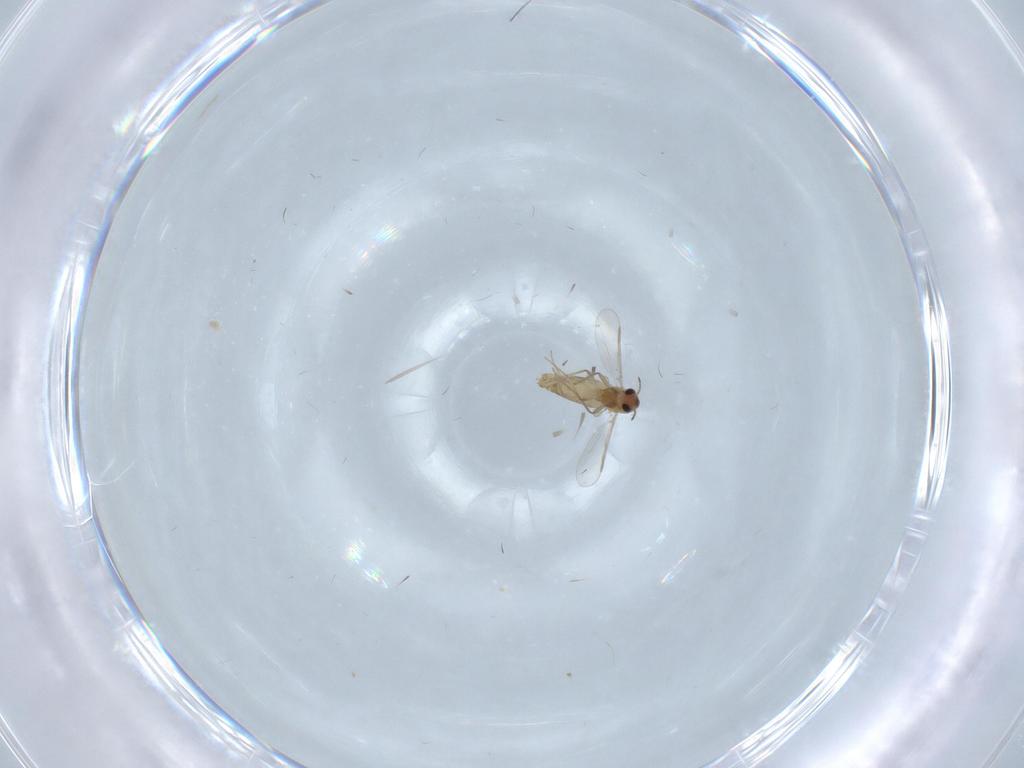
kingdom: Animalia
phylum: Arthropoda
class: Insecta
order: Diptera
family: Chironomidae
